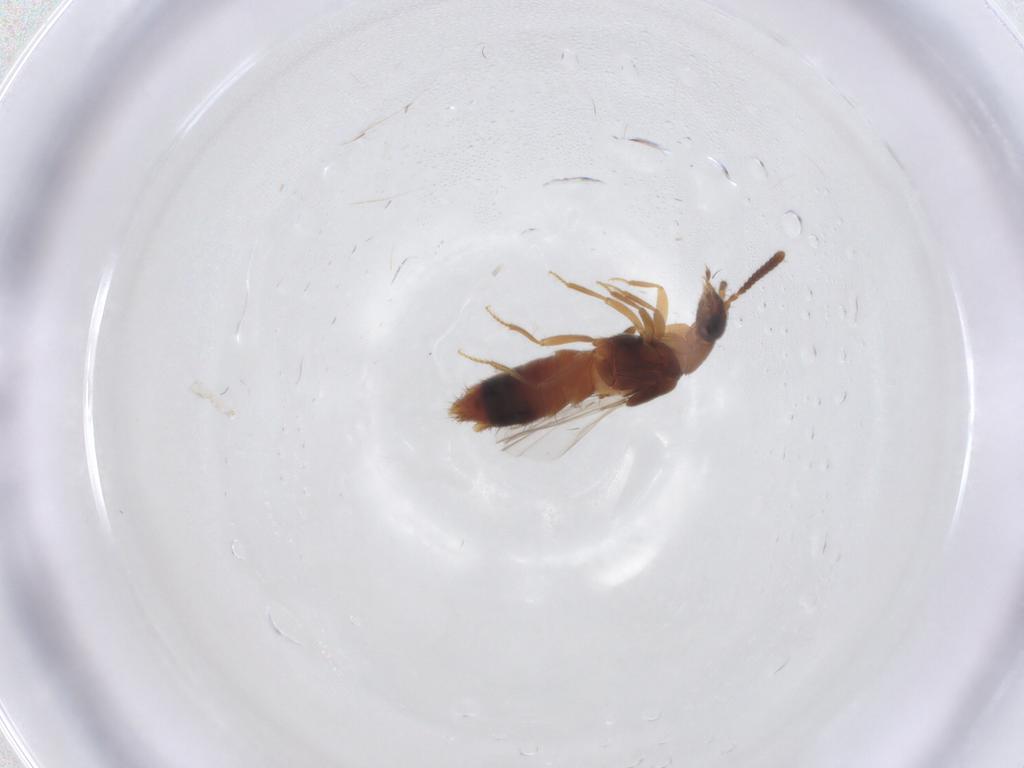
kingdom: Animalia
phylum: Arthropoda
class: Insecta
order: Coleoptera
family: Staphylinidae
